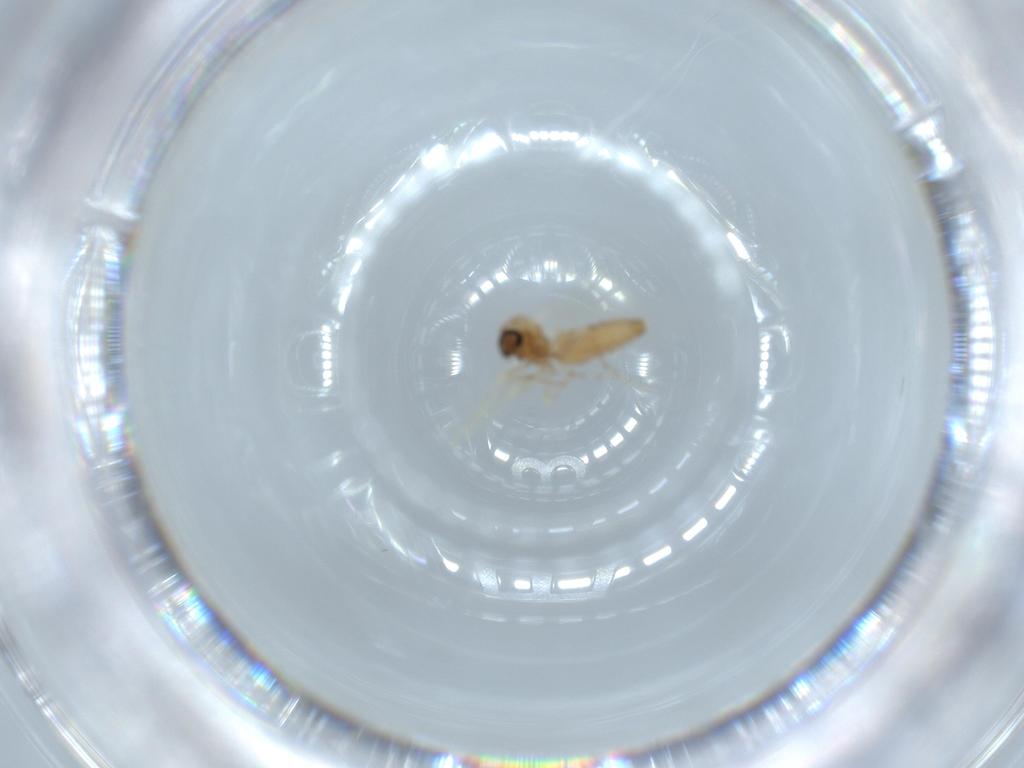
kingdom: Animalia
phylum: Arthropoda
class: Insecta
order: Diptera
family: Ceratopogonidae
